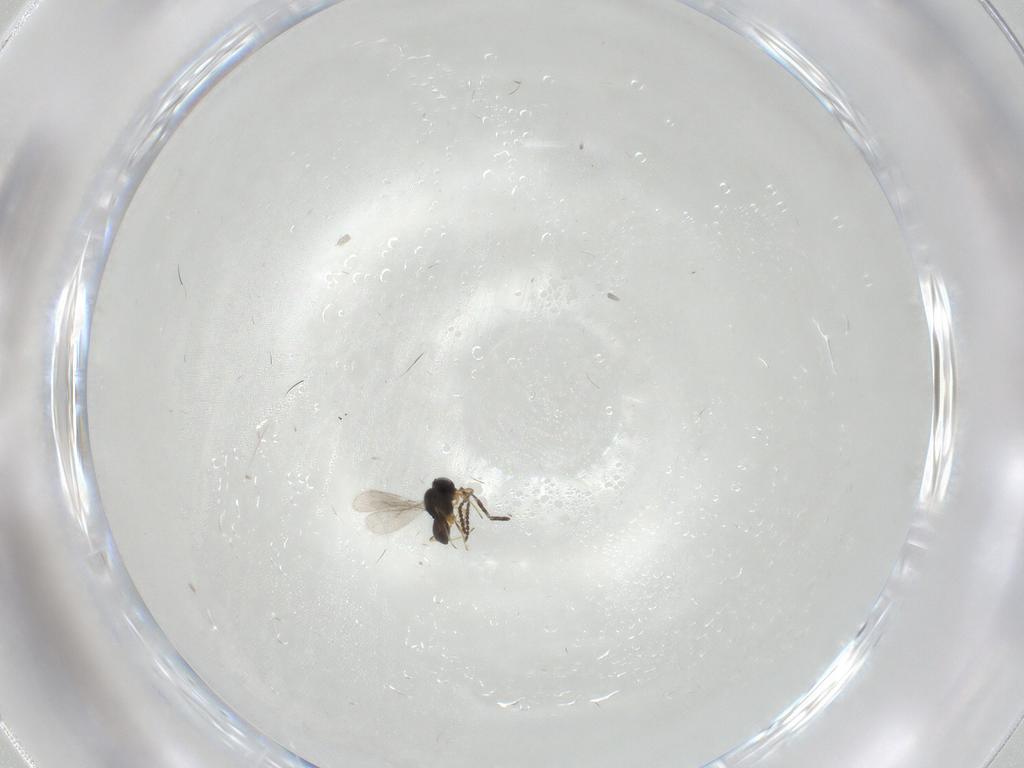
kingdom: Animalia
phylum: Arthropoda
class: Insecta
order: Hymenoptera
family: Scelionidae
